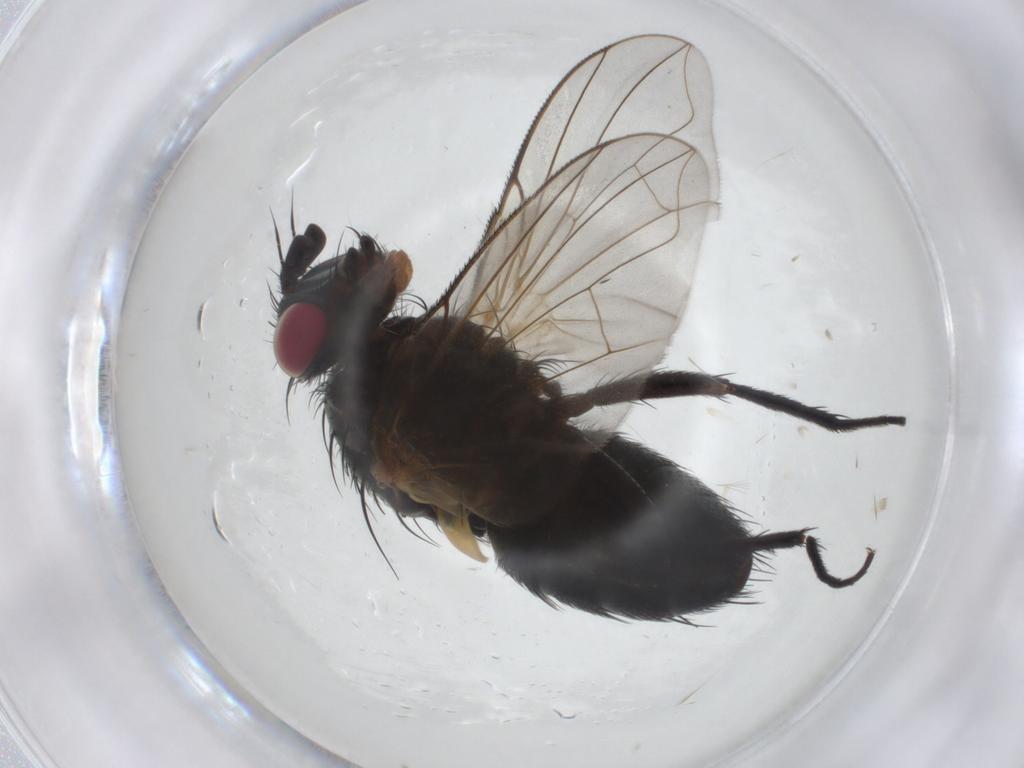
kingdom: Animalia
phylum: Arthropoda
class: Insecta
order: Diptera
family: Tachinidae
